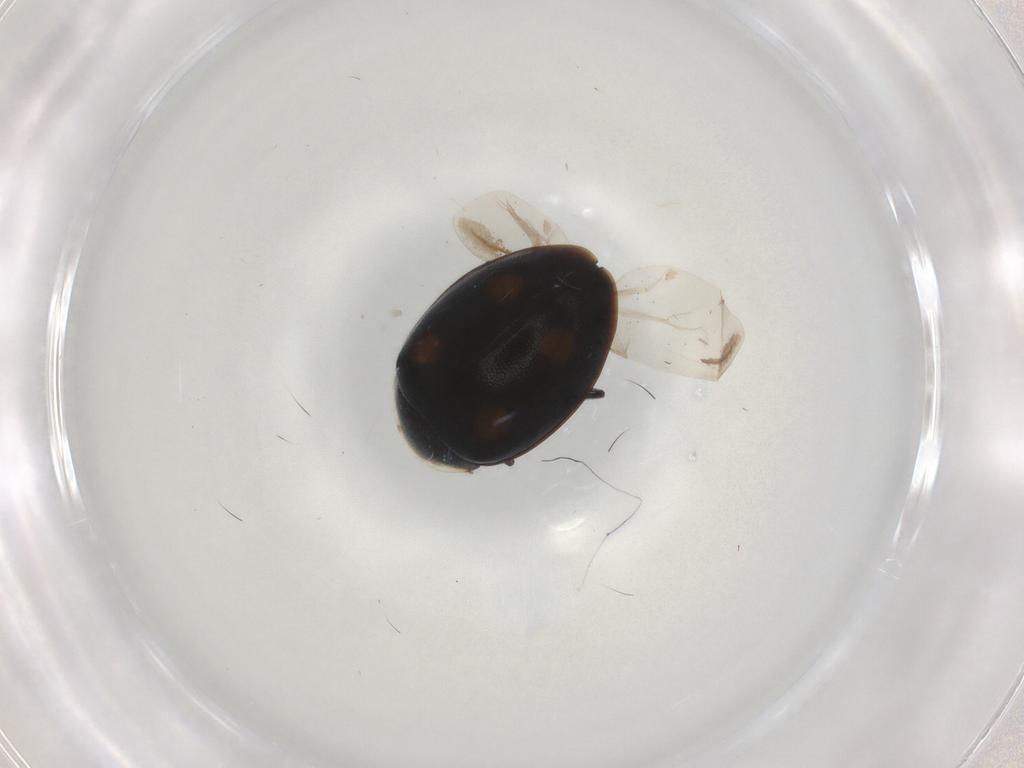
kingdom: Animalia
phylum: Arthropoda
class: Insecta
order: Coleoptera
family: Coccinellidae
